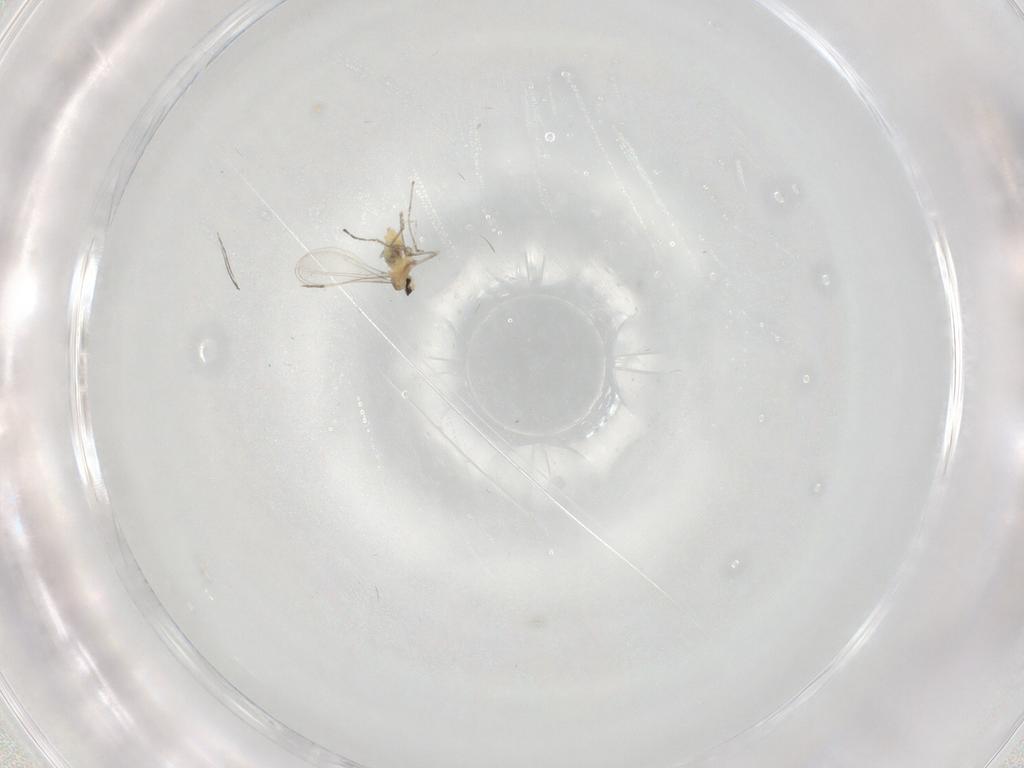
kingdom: Animalia
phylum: Arthropoda
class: Insecta
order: Diptera
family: Cecidomyiidae
